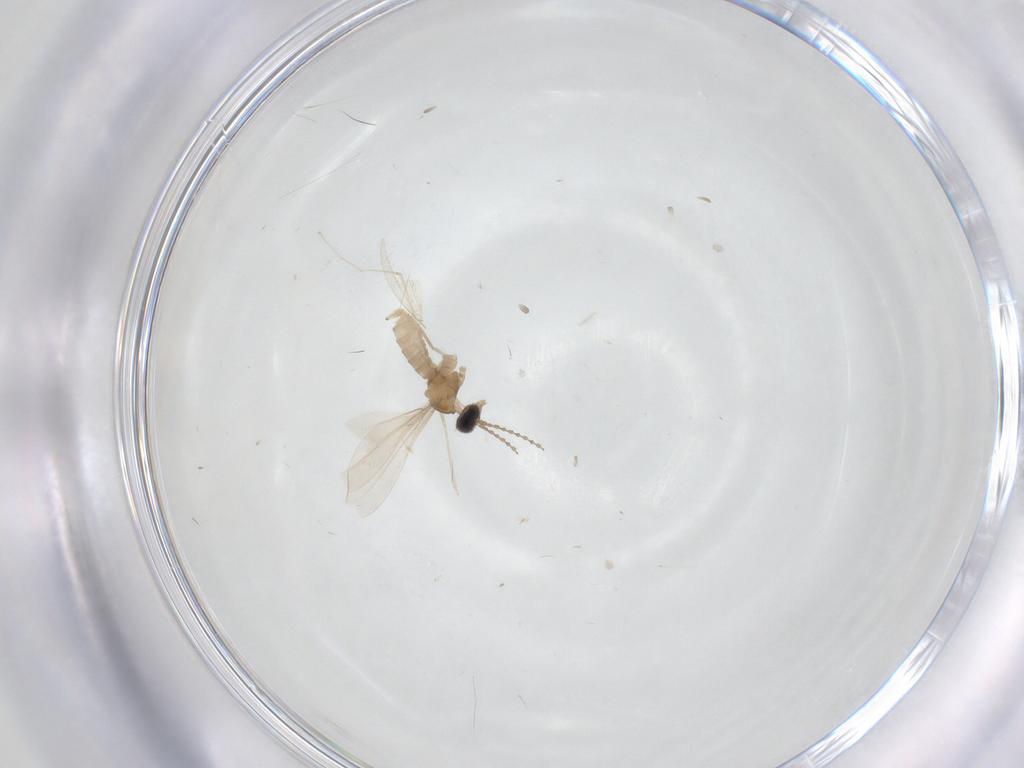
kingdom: Animalia
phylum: Arthropoda
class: Insecta
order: Diptera
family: Cecidomyiidae
